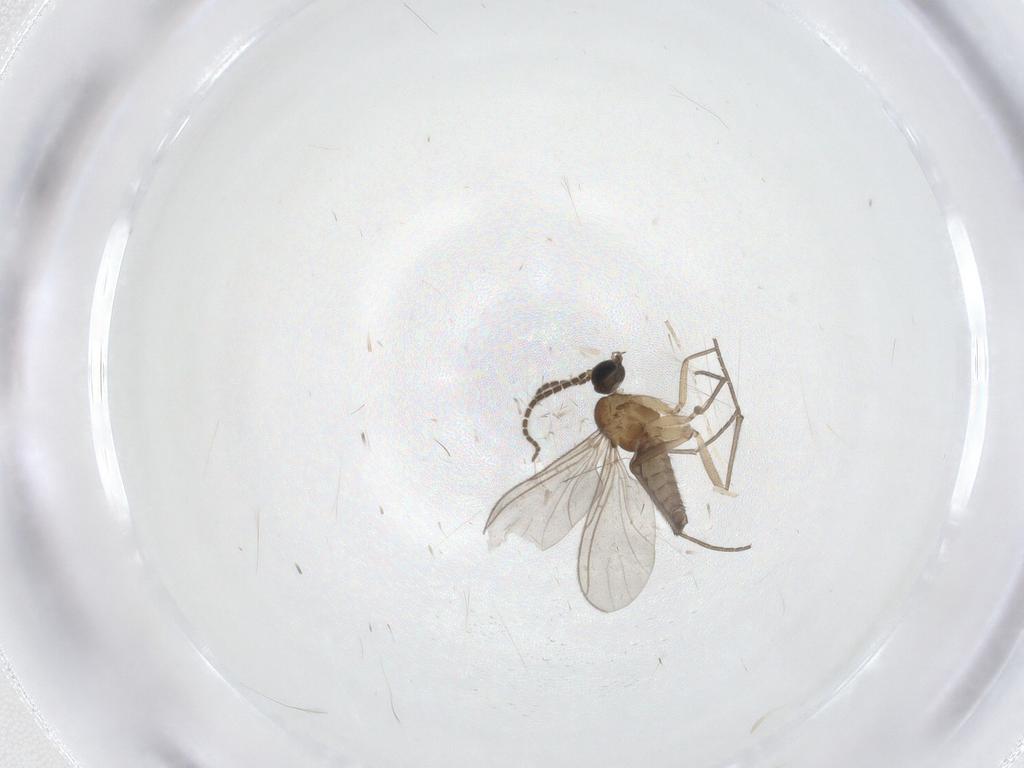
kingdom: Animalia
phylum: Arthropoda
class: Insecta
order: Diptera
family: Sciaridae
